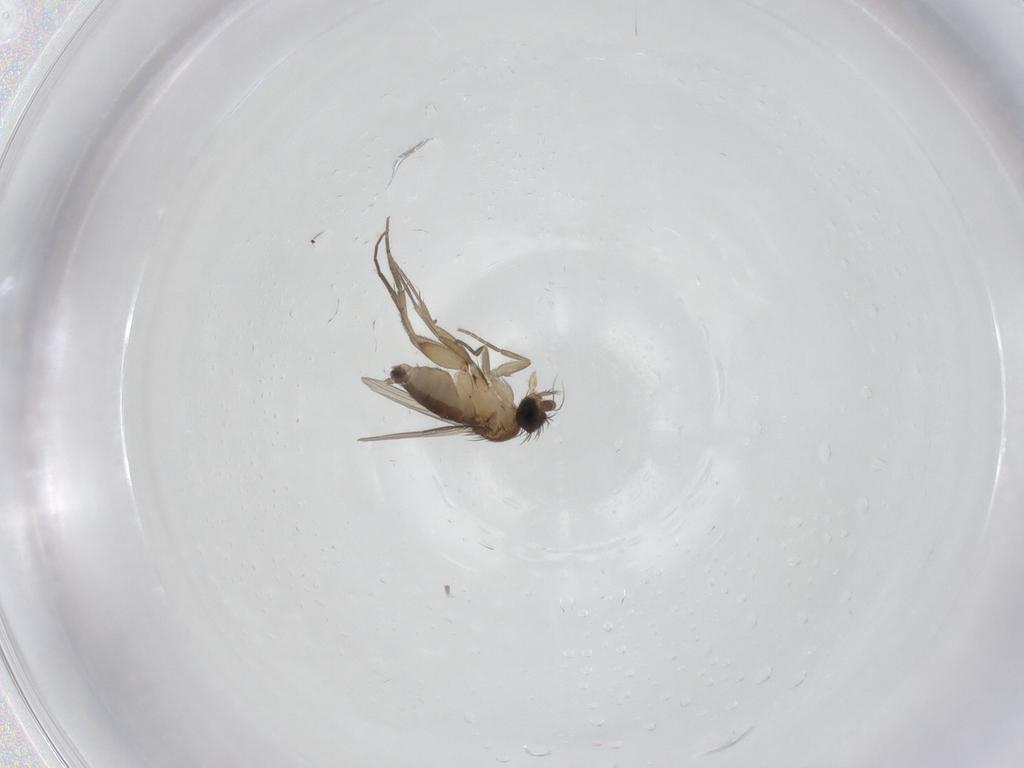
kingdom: Animalia
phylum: Arthropoda
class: Insecta
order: Diptera
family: Phoridae
